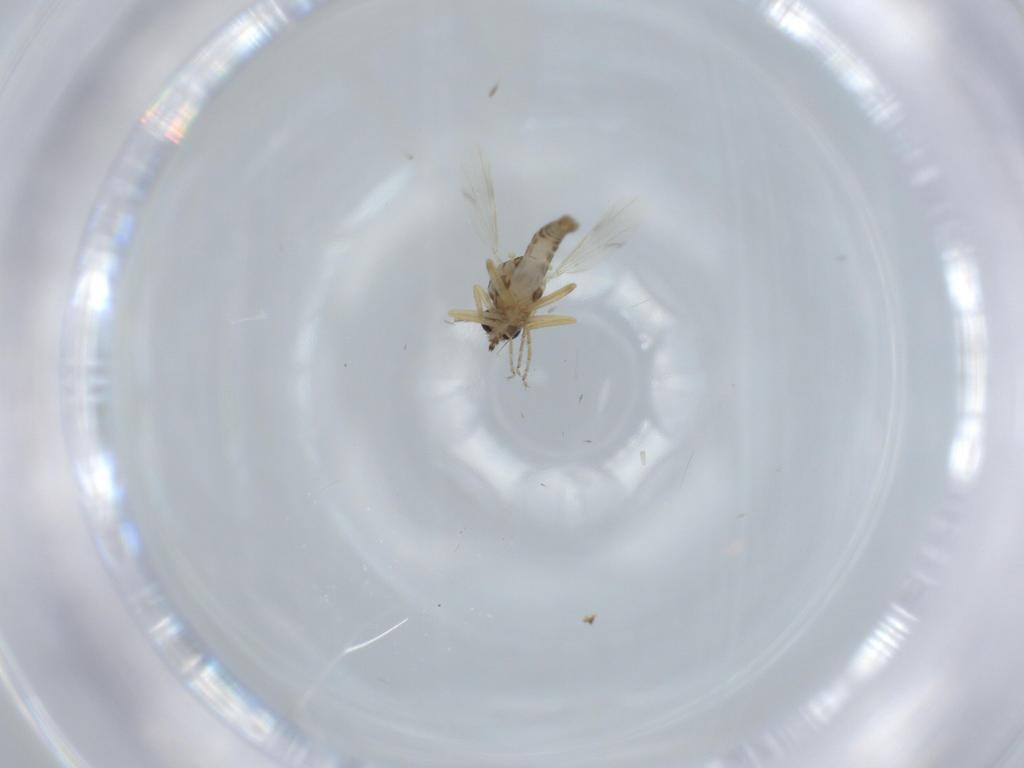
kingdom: Animalia
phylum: Arthropoda
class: Insecta
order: Diptera
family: Ceratopogonidae
